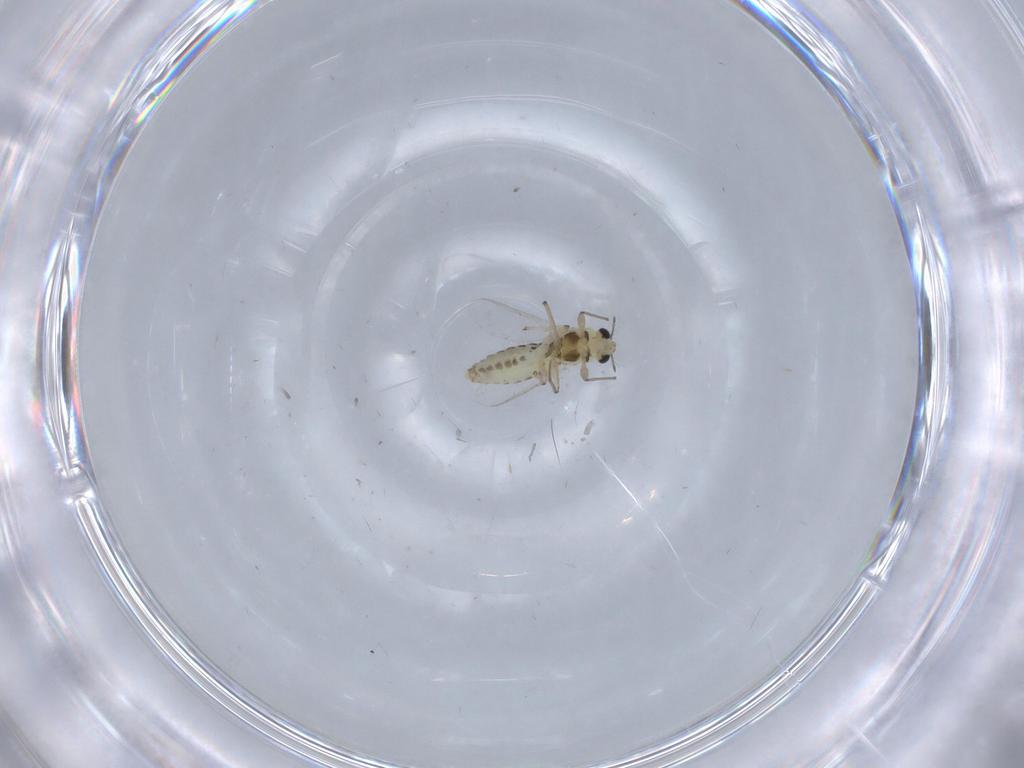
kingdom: Animalia
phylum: Arthropoda
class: Insecta
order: Diptera
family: Chironomidae
